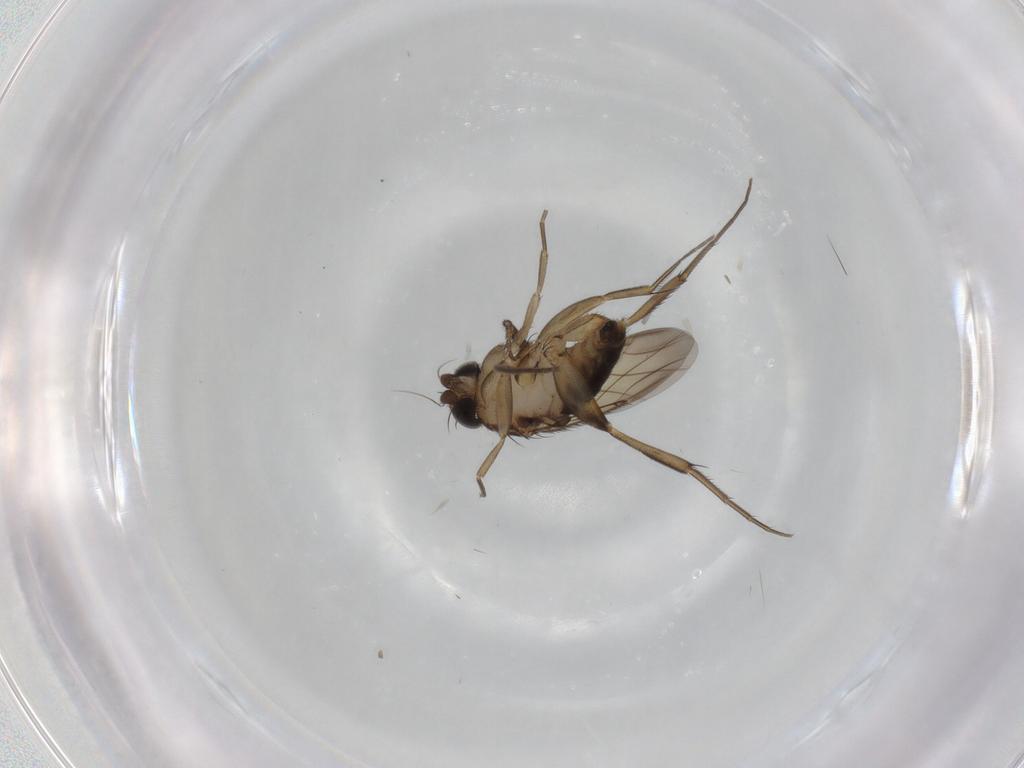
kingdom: Animalia
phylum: Arthropoda
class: Insecta
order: Diptera
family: Phoridae
